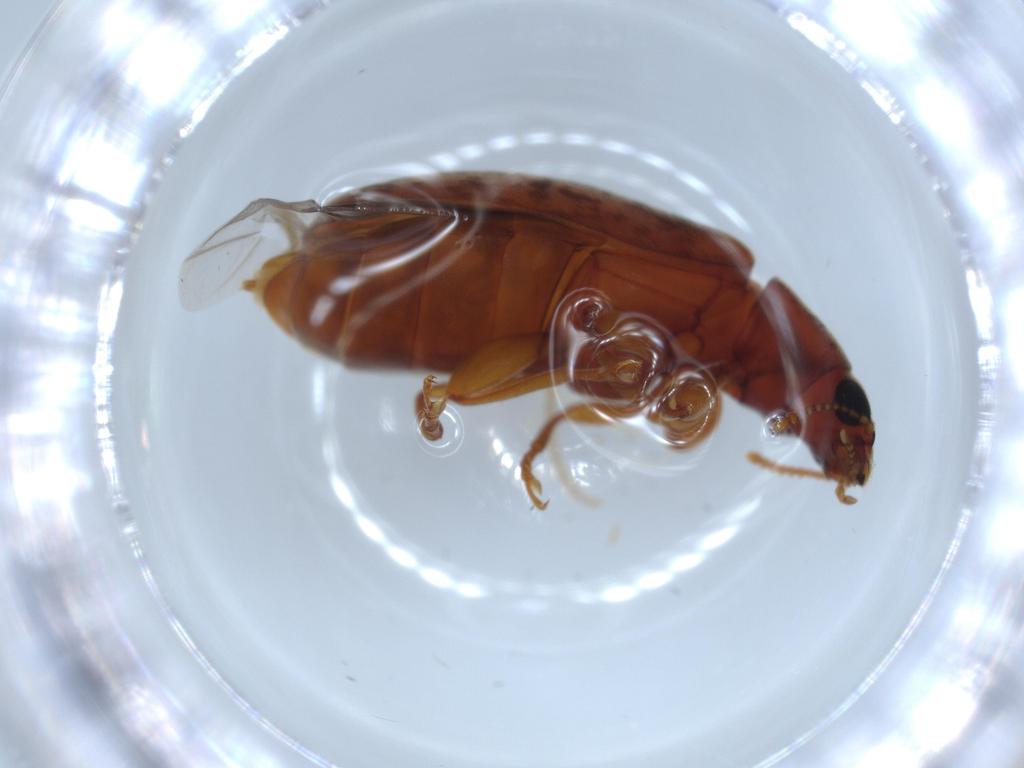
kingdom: Animalia
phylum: Arthropoda
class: Insecta
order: Coleoptera
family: Mycteridae
